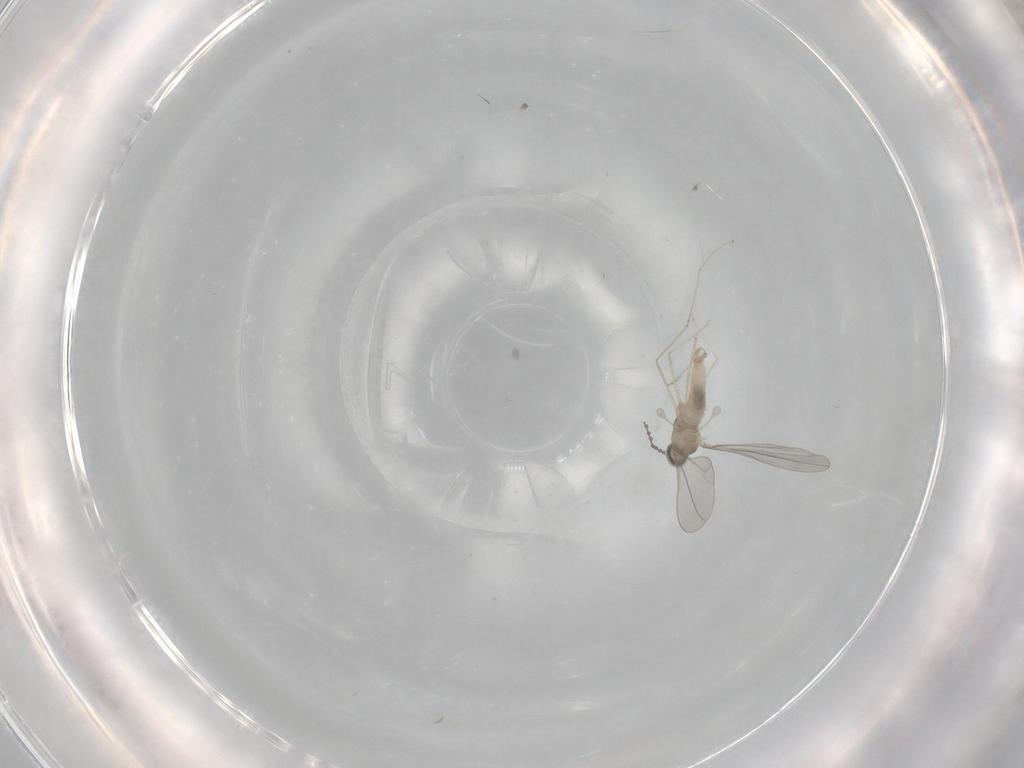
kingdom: Animalia
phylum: Arthropoda
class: Insecta
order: Diptera
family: Cecidomyiidae
